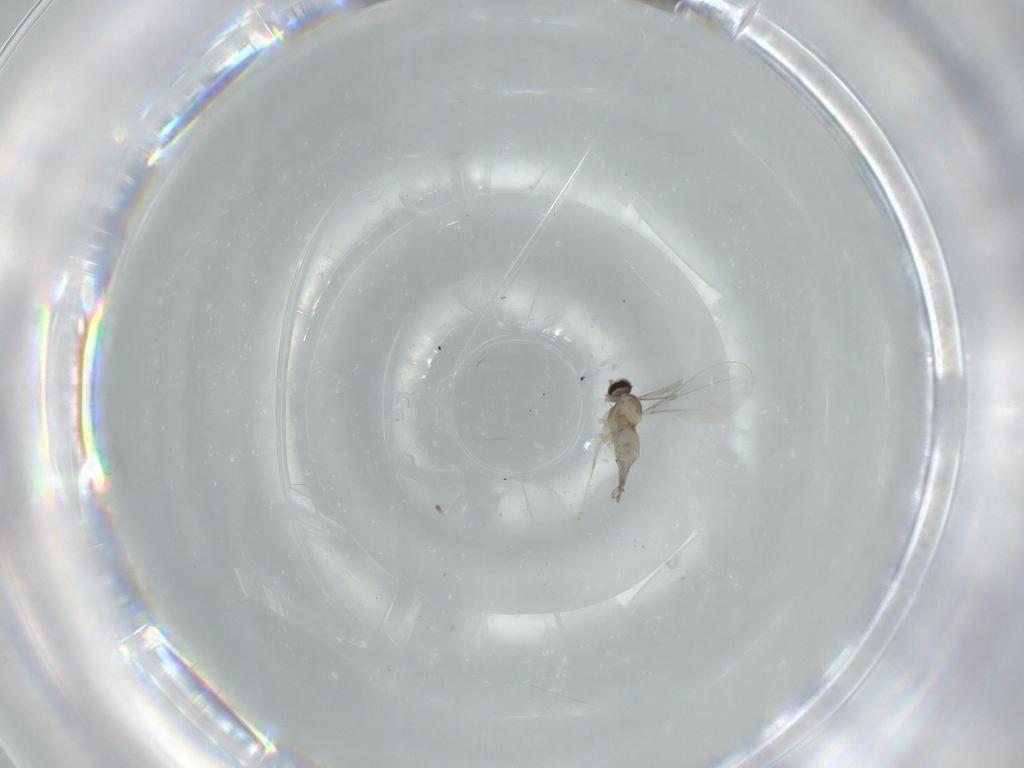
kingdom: Animalia
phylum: Arthropoda
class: Insecta
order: Diptera
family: Cecidomyiidae
